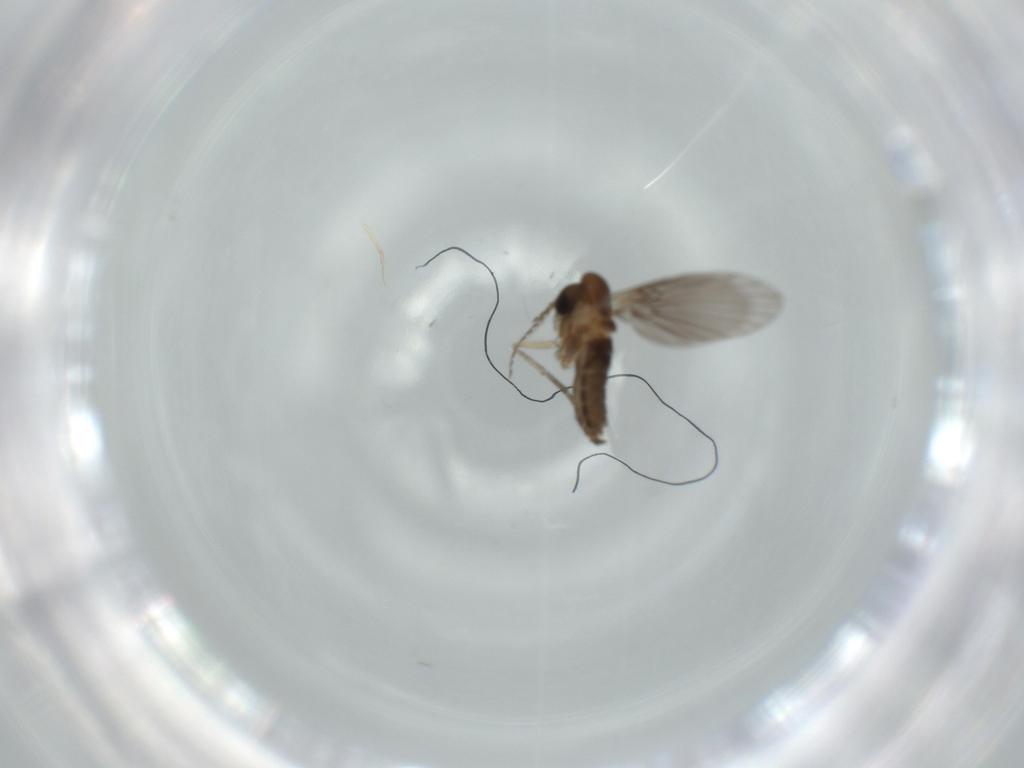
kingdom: Animalia
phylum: Arthropoda
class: Insecta
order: Diptera
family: Psychodidae
